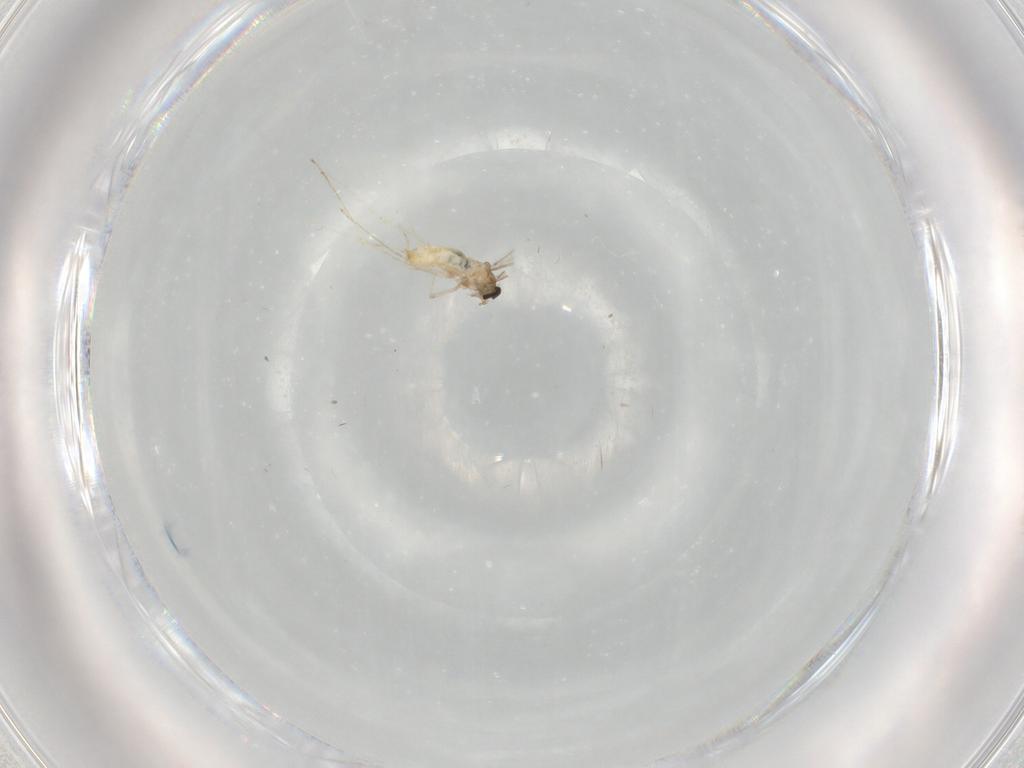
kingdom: Animalia
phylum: Arthropoda
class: Insecta
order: Diptera
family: Cecidomyiidae
